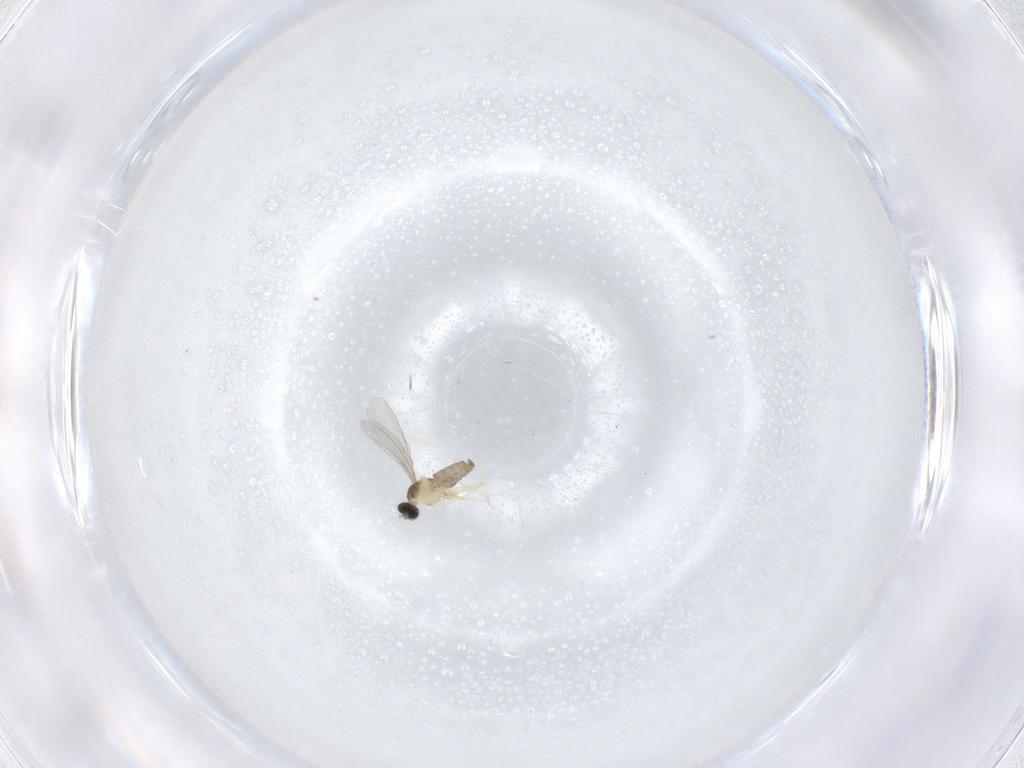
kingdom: Animalia
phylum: Arthropoda
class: Insecta
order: Diptera
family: Cecidomyiidae
